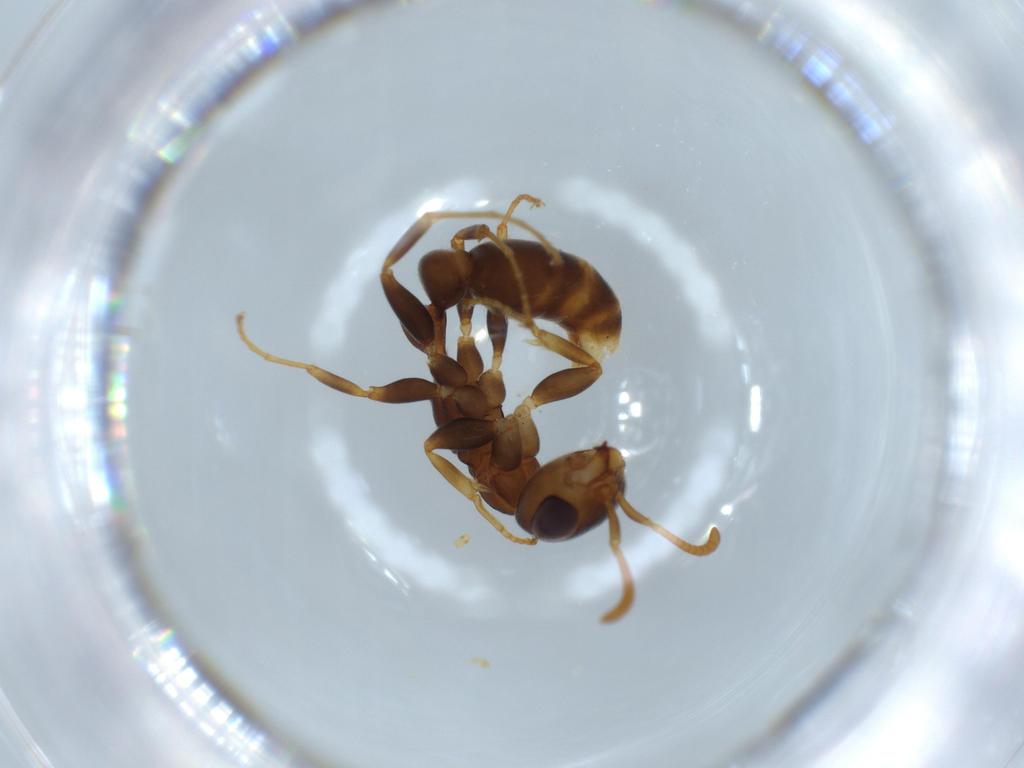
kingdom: Animalia
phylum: Arthropoda
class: Insecta
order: Hymenoptera
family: Formicidae
